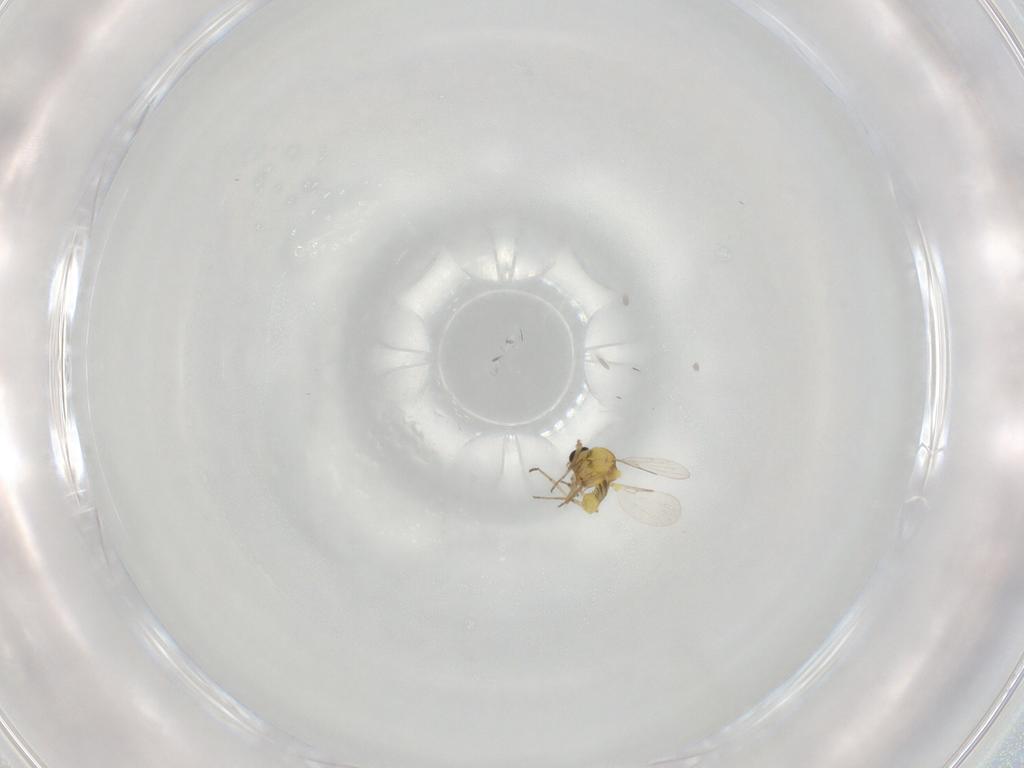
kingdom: Animalia
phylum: Arthropoda
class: Insecta
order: Diptera
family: Ceratopogonidae
